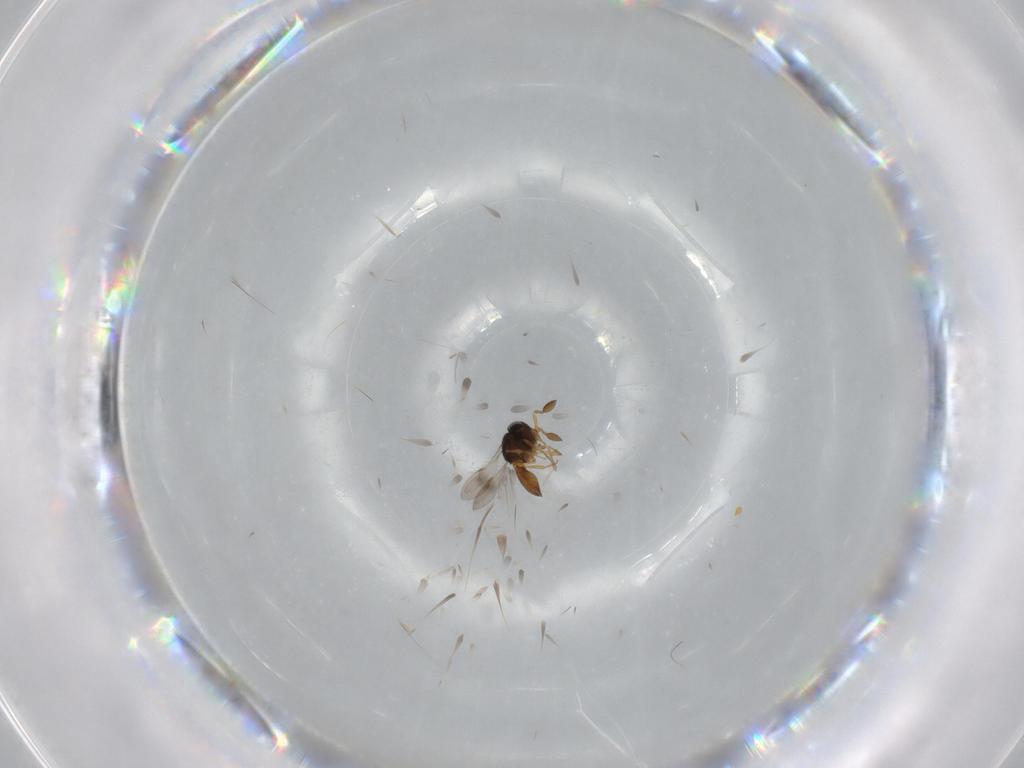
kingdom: Animalia
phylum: Arthropoda
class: Insecta
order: Hymenoptera
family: Scelionidae
